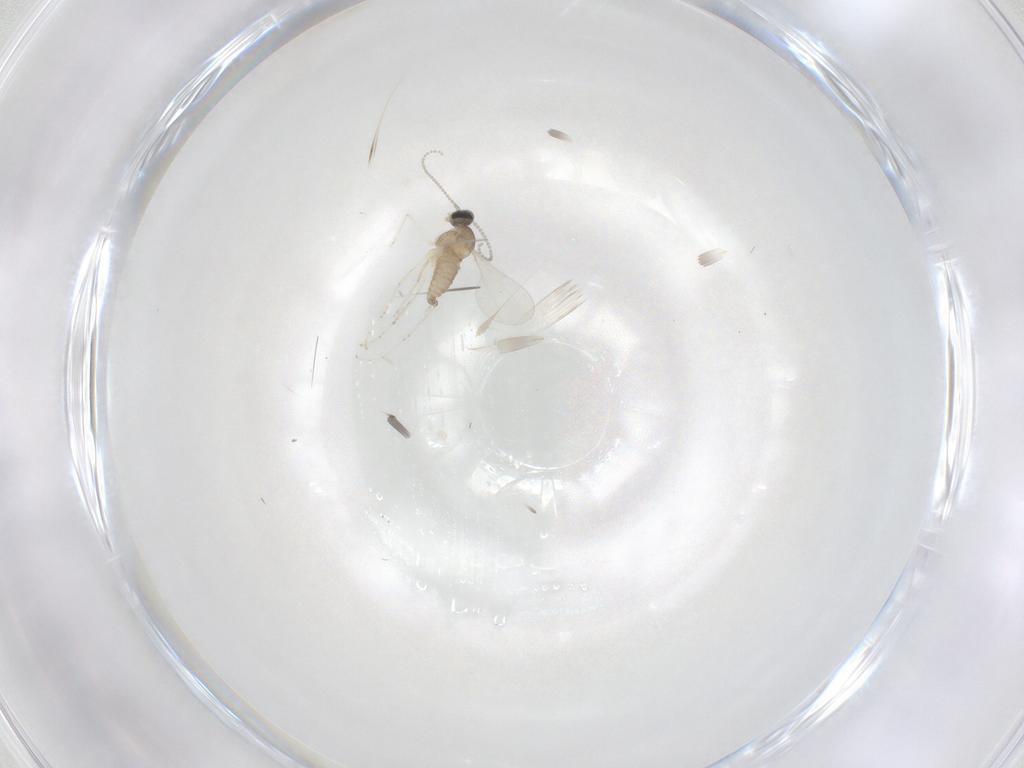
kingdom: Animalia
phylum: Arthropoda
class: Insecta
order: Diptera
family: Cecidomyiidae
